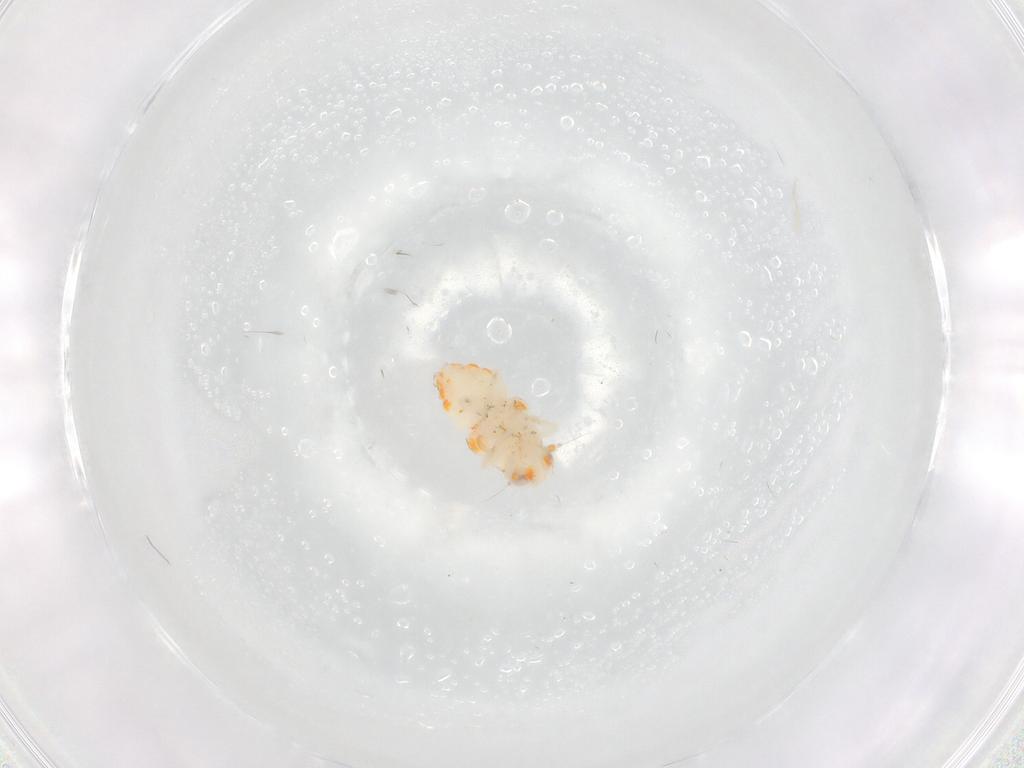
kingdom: Animalia
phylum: Arthropoda
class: Insecta
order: Hemiptera
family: Nogodinidae
